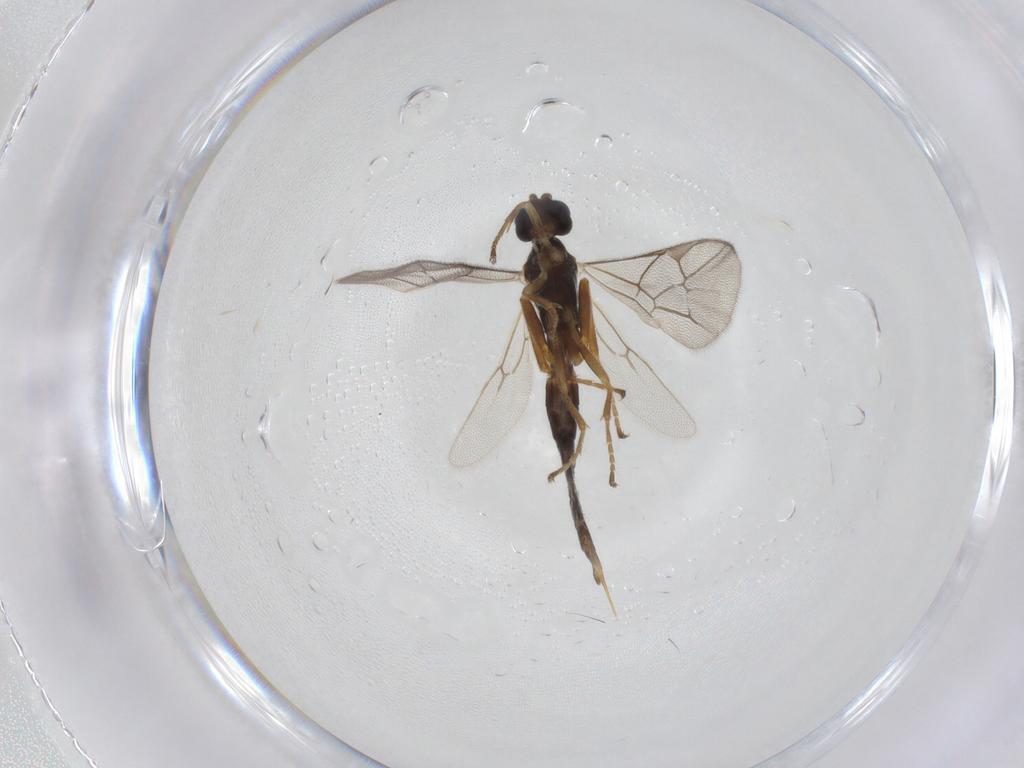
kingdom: Animalia
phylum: Arthropoda
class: Insecta
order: Hymenoptera
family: Ichneumonidae
